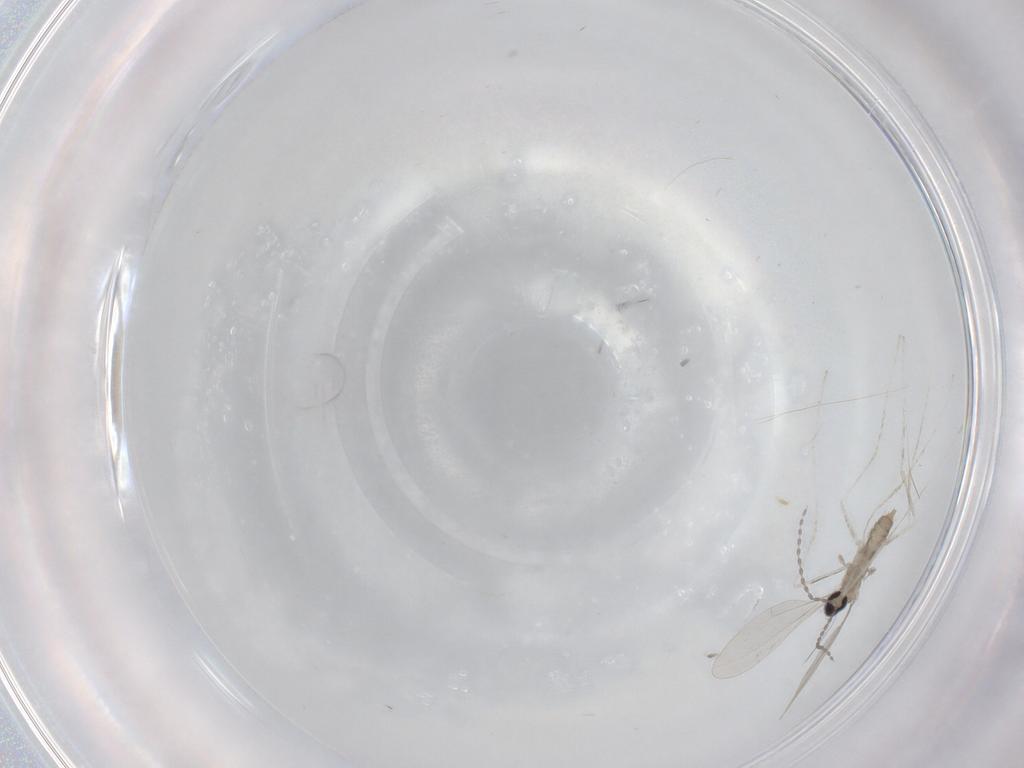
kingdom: Animalia
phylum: Arthropoda
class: Insecta
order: Diptera
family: Cecidomyiidae
